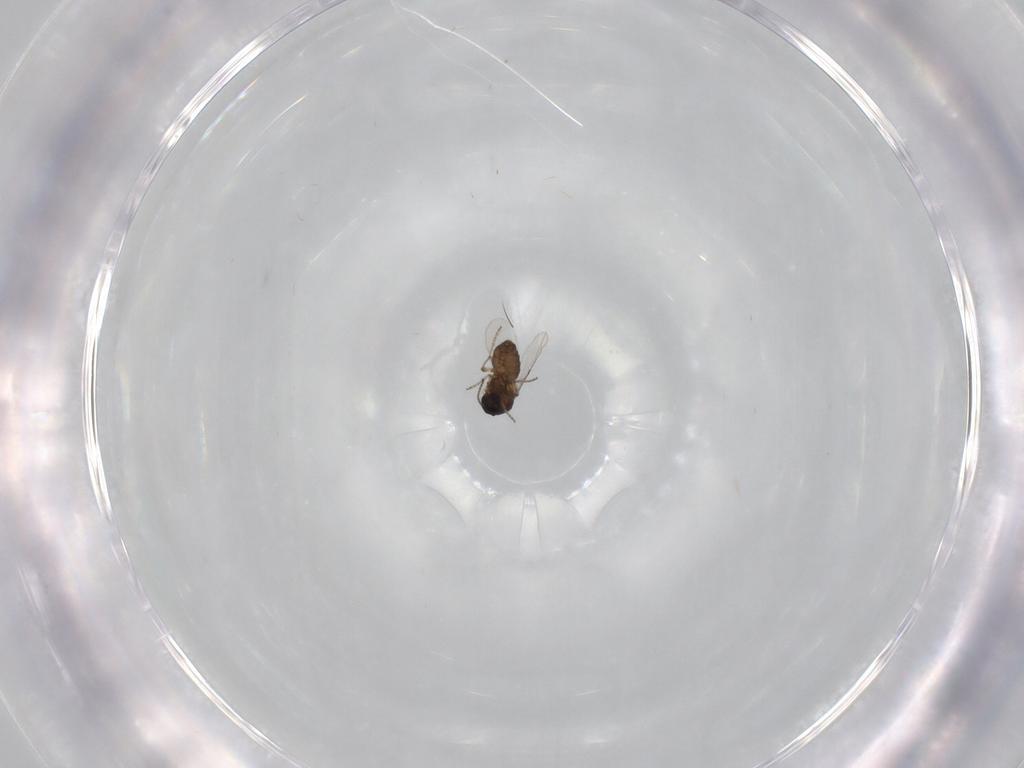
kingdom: Animalia
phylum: Arthropoda
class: Insecta
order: Diptera
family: Ceratopogonidae
